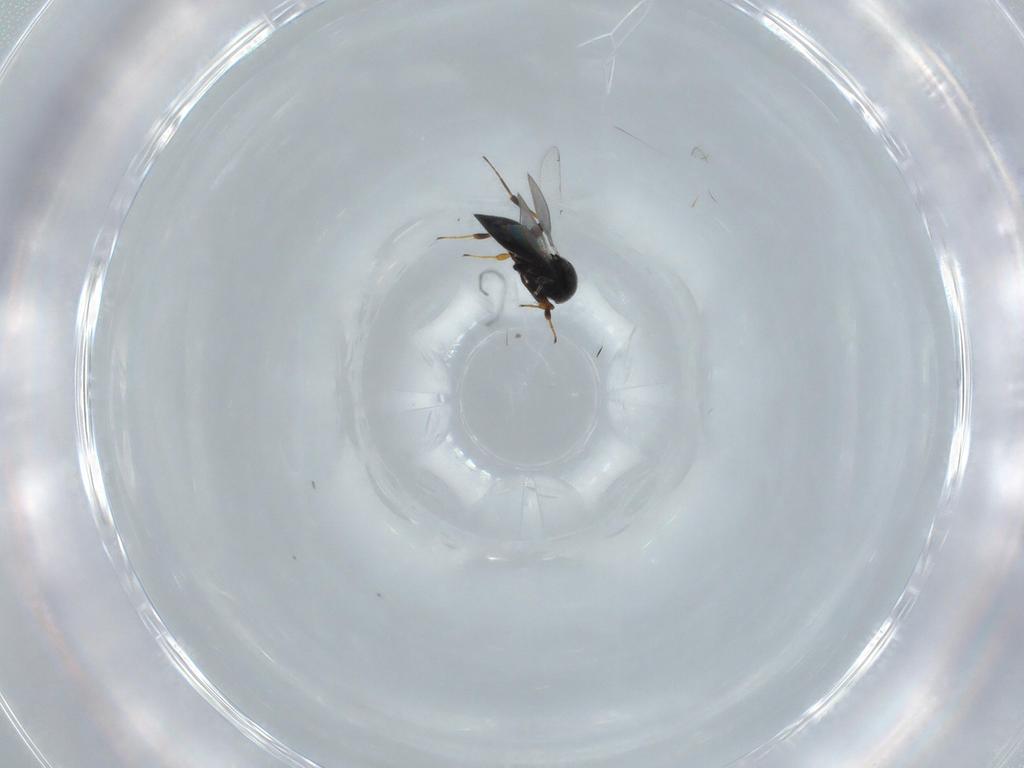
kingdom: Animalia
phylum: Arthropoda
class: Insecta
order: Hymenoptera
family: Platygastridae
